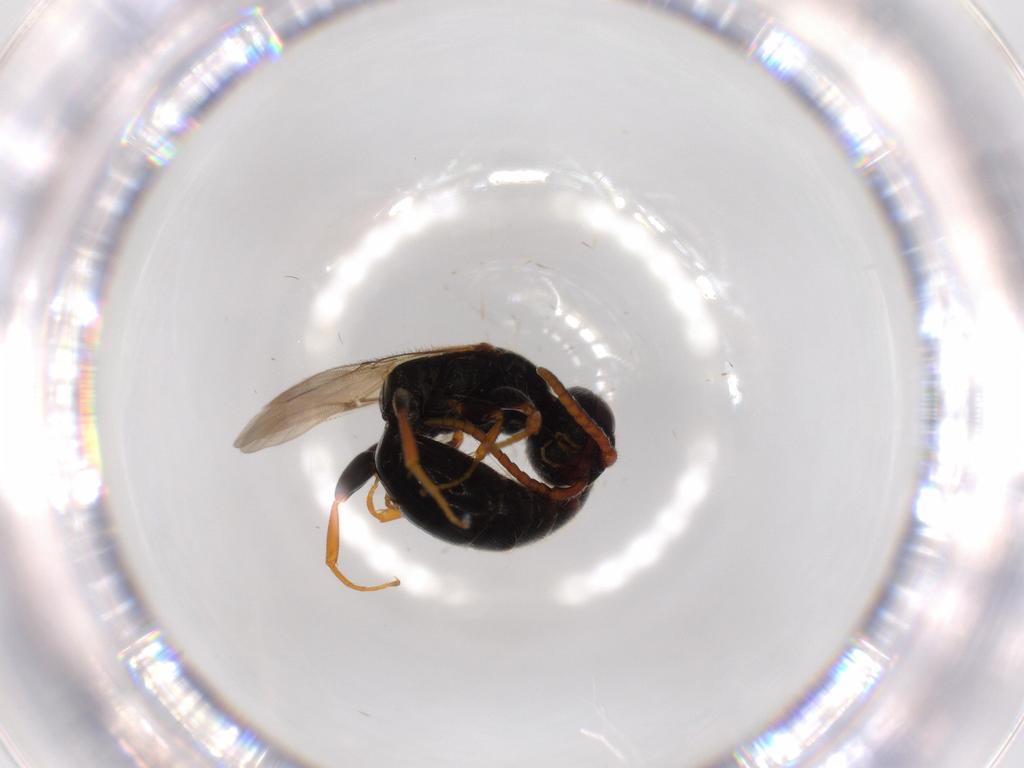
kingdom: Animalia
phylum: Arthropoda
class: Insecta
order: Hymenoptera
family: Bethylidae
